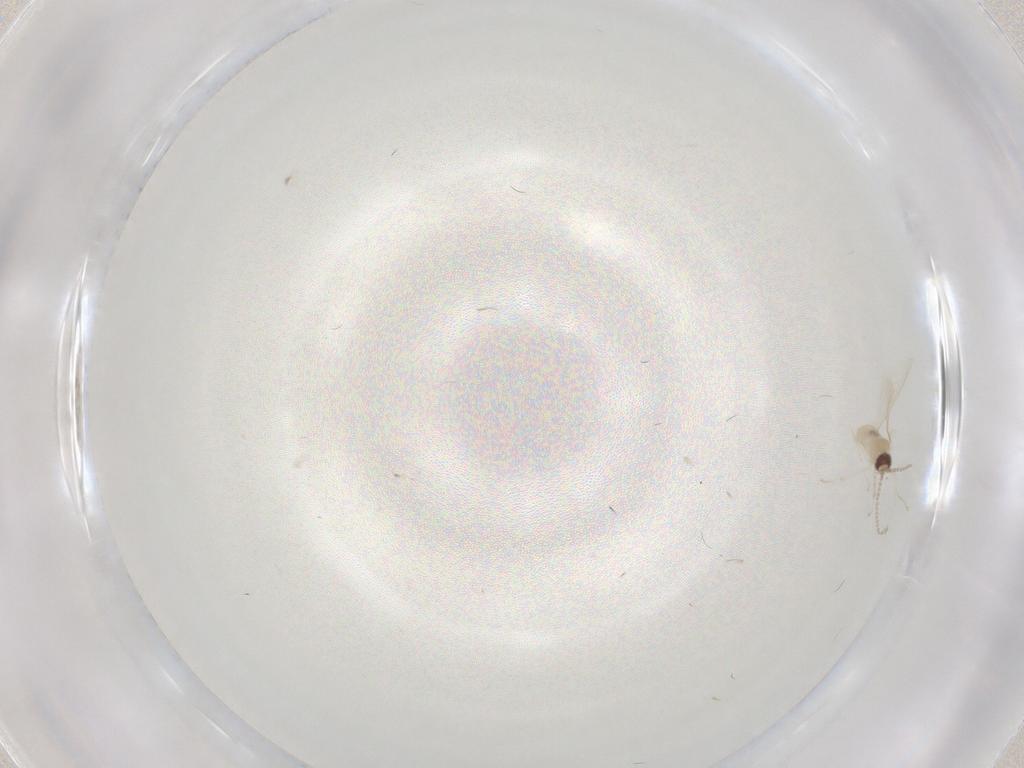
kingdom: Animalia
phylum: Arthropoda
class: Insecta
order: Diptera
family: Cecidomyiidae
